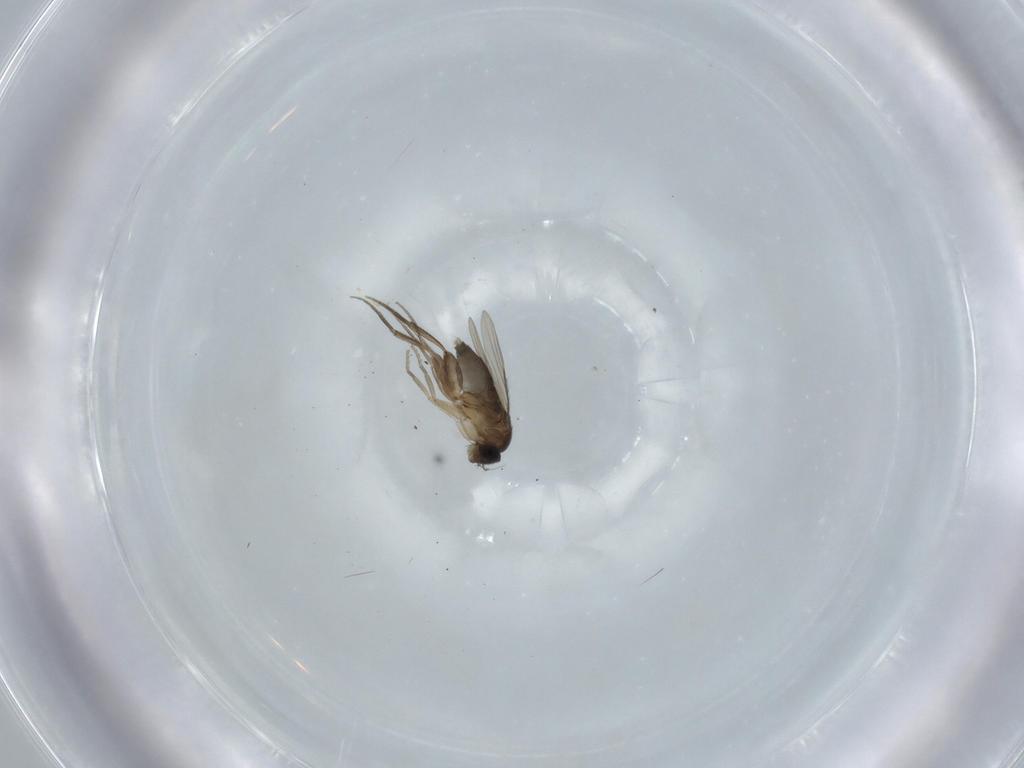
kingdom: Animalia
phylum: Arthropoda
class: Insecta
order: Diptera
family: Phoridae
